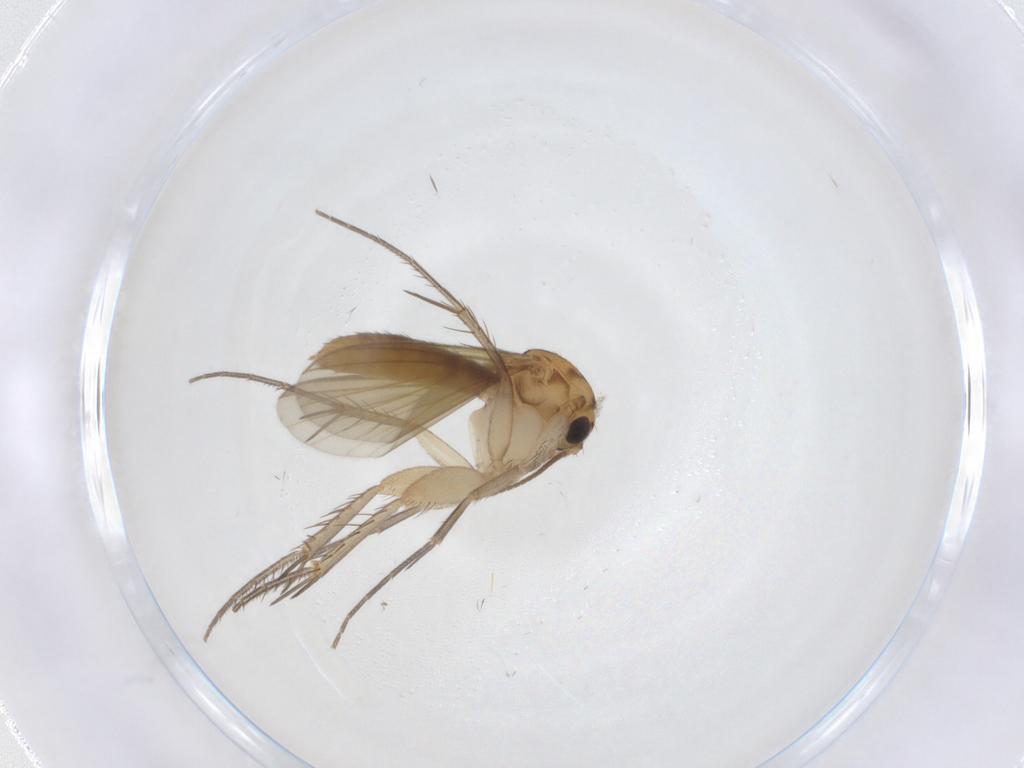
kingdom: Animalia
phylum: Arthropoda
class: Insecta
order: Diptera
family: Mycetophilidae
